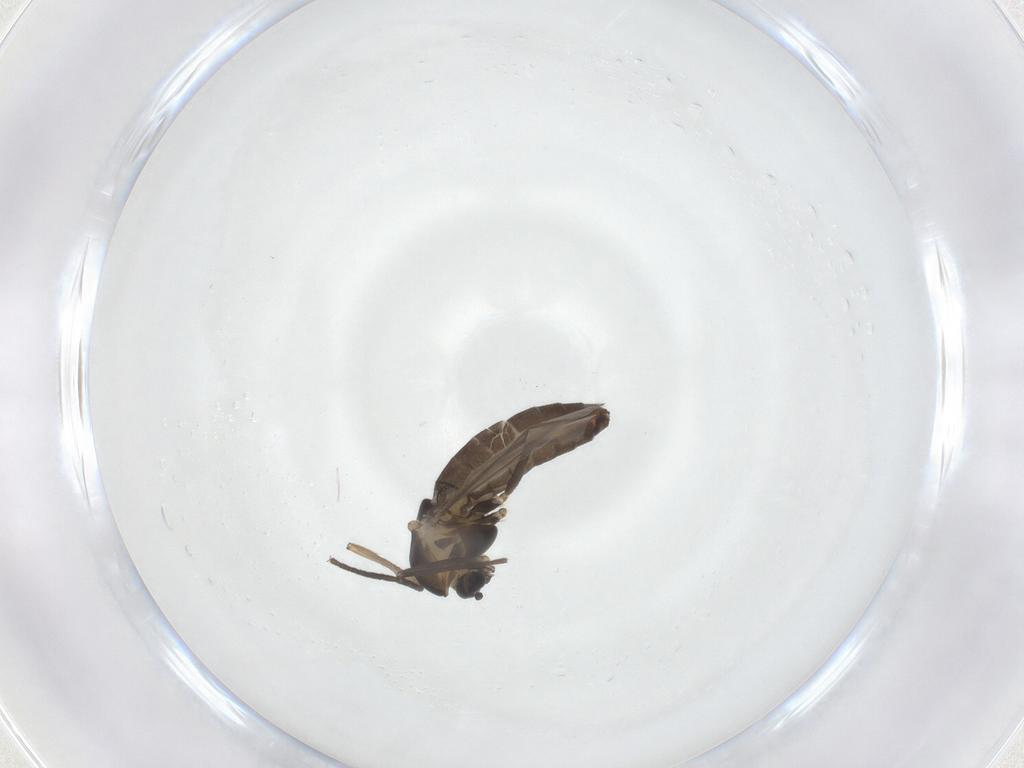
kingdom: Animalia
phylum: Arthropoda
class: Insecta
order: Diptera
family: Chironomidae
